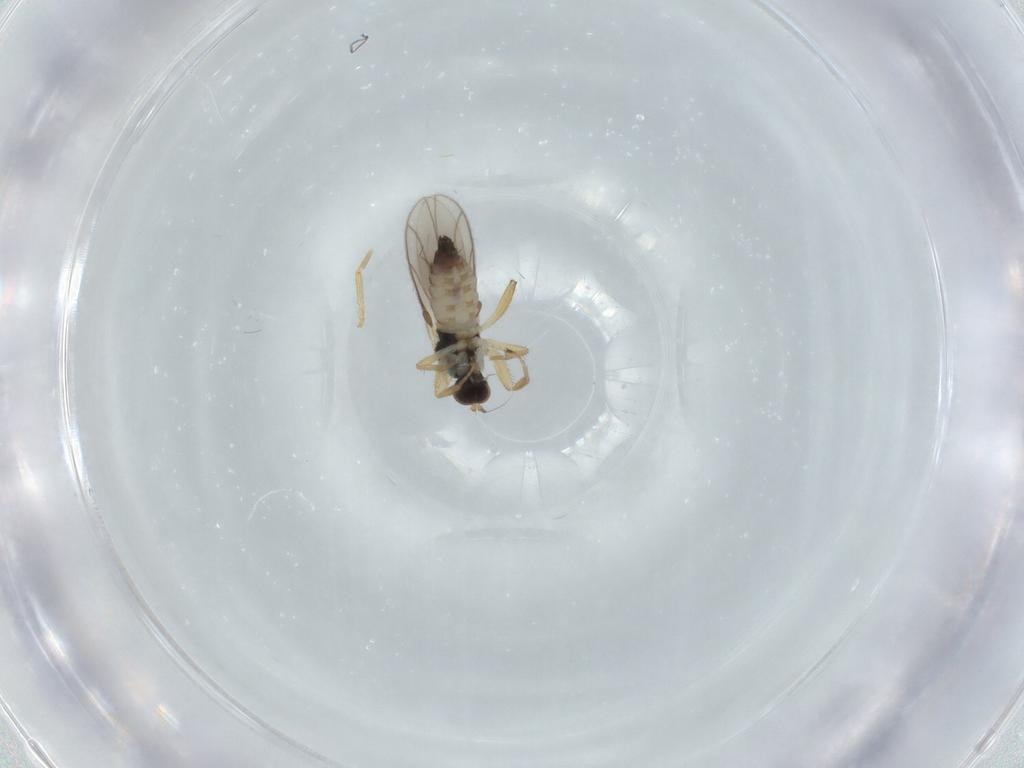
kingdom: Animalia
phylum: Arthropoda
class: Insecta
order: Diptera
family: Hybotidae
